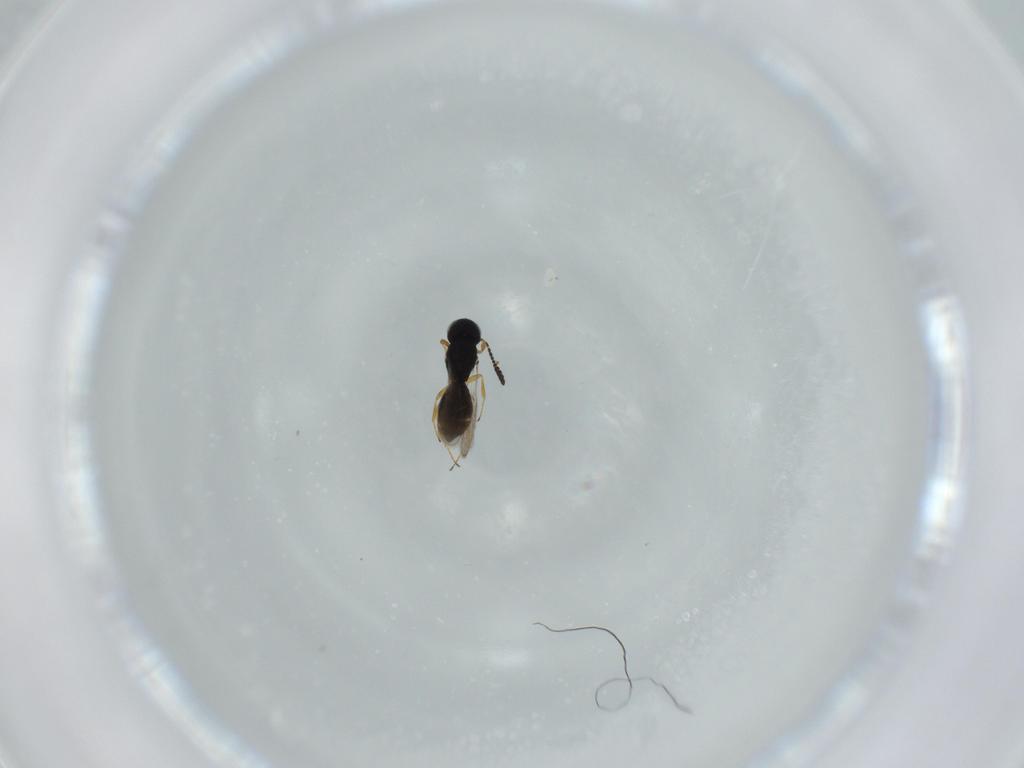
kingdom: Animalia
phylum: Arthropoda
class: Insecta
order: Hymenoptera
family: Scelionidae
